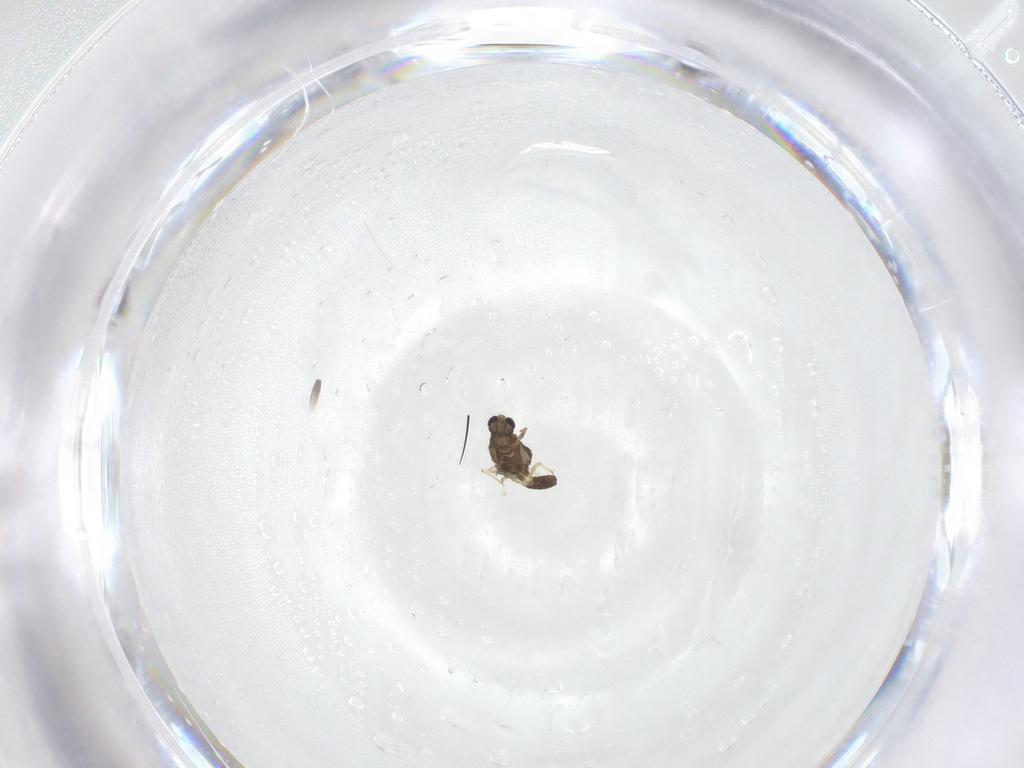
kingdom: Animalia
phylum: Arthropoda
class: Insecta
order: Diptera
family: Chironomidae
